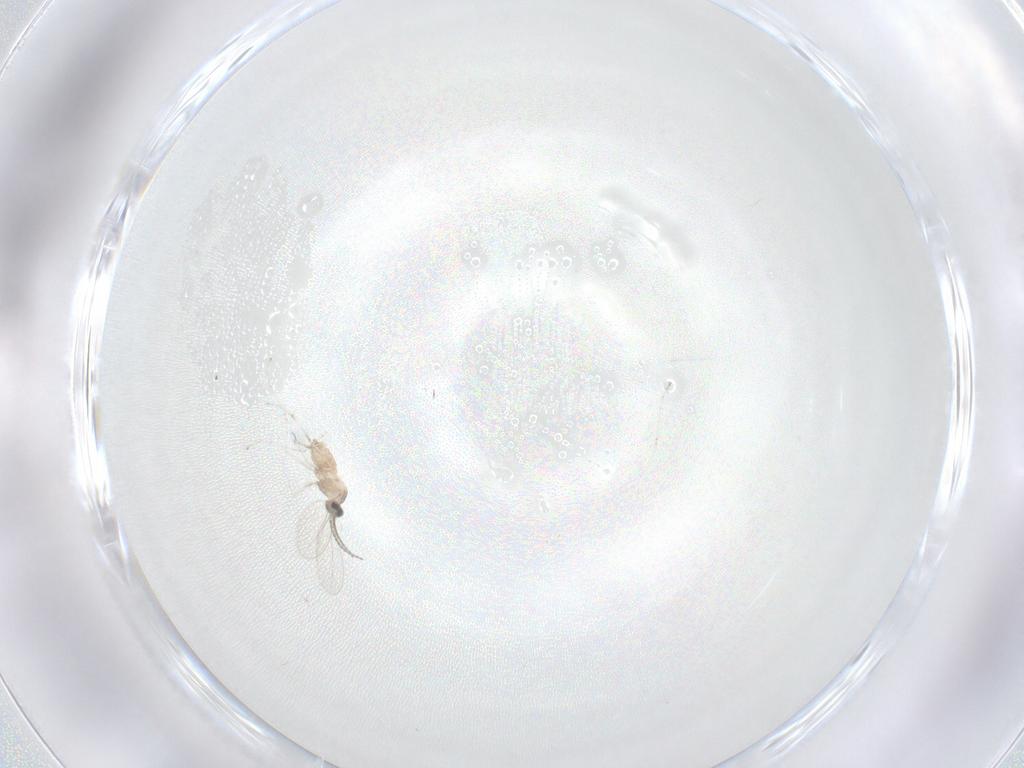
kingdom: Animalia
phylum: Arthropoda
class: Insecta
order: Diptera
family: Cecidomyiidae
